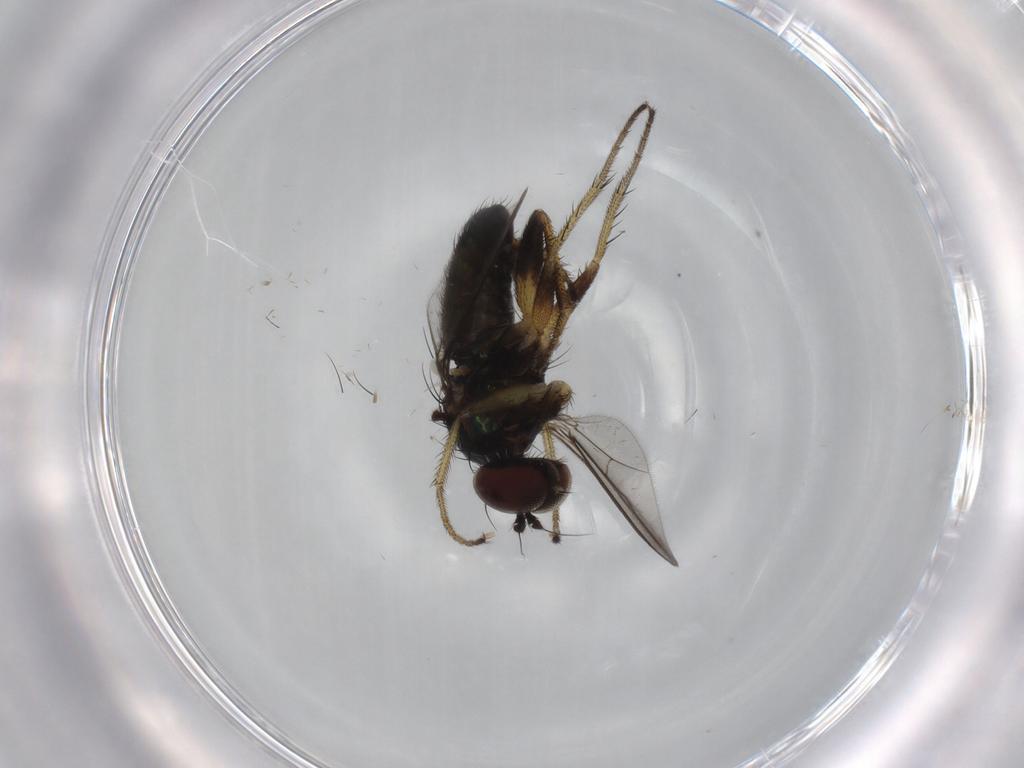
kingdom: Animalia
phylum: Arthropoda
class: Insecta
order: Diptera
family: Dolichopodidae
